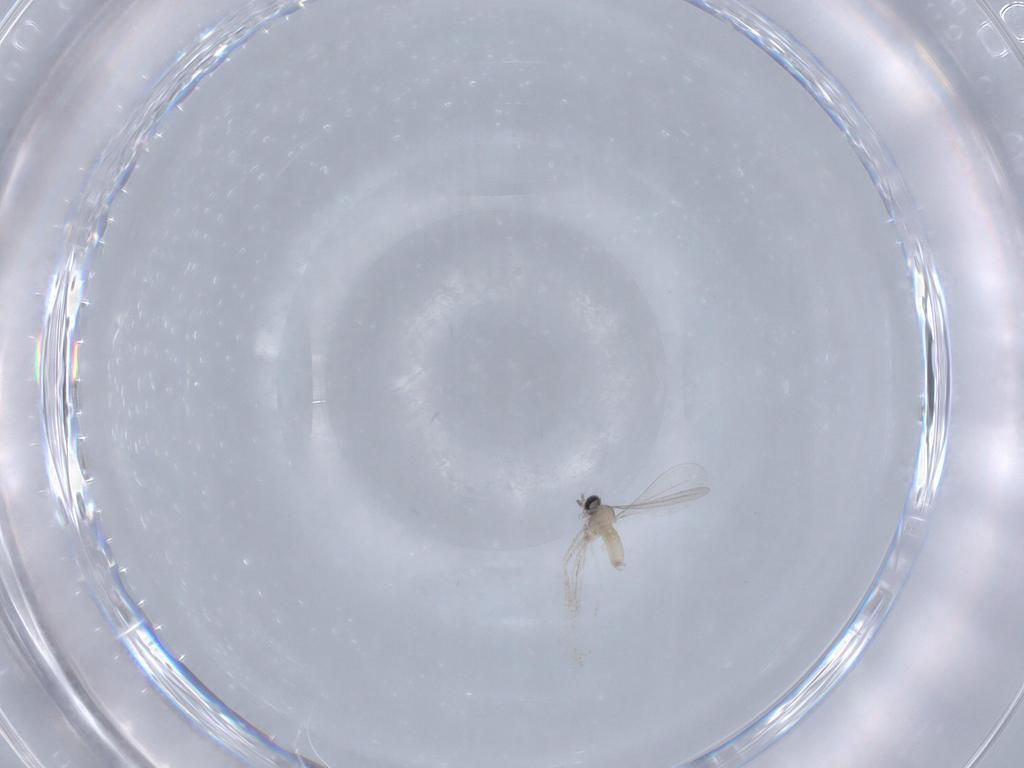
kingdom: Animalia
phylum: Arthropoda
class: Insecta
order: Diptera
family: Cecidomyiidae
